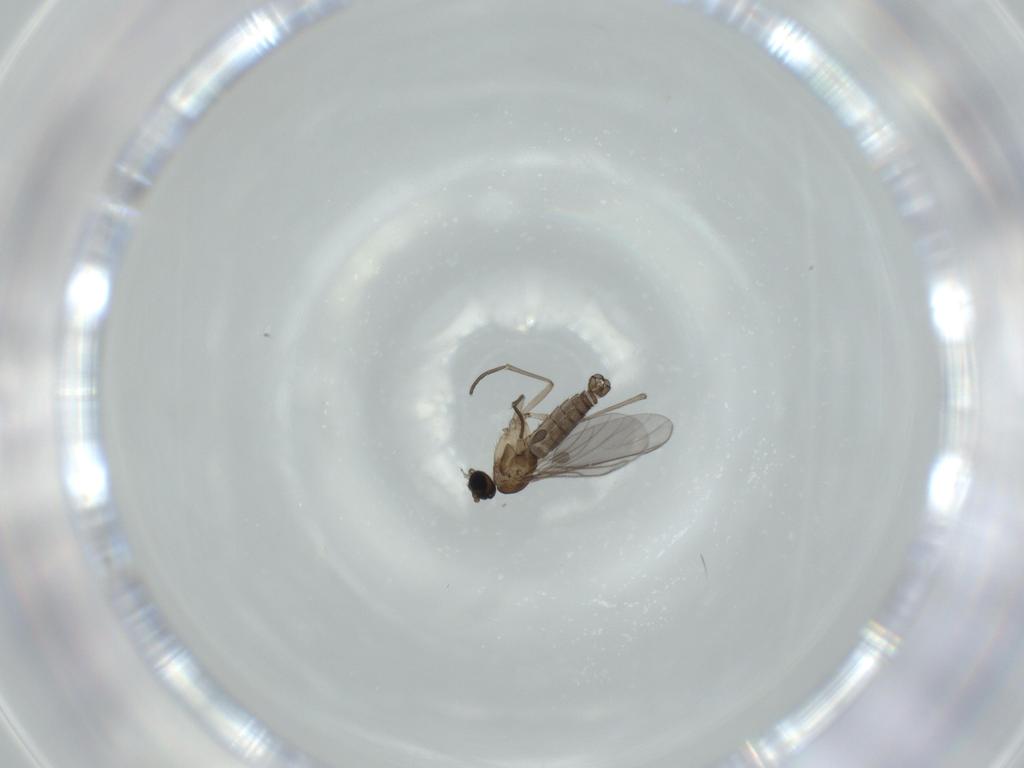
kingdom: Animalia
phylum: Arthropoda
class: Insecta
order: Diptera
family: Sciaridae
